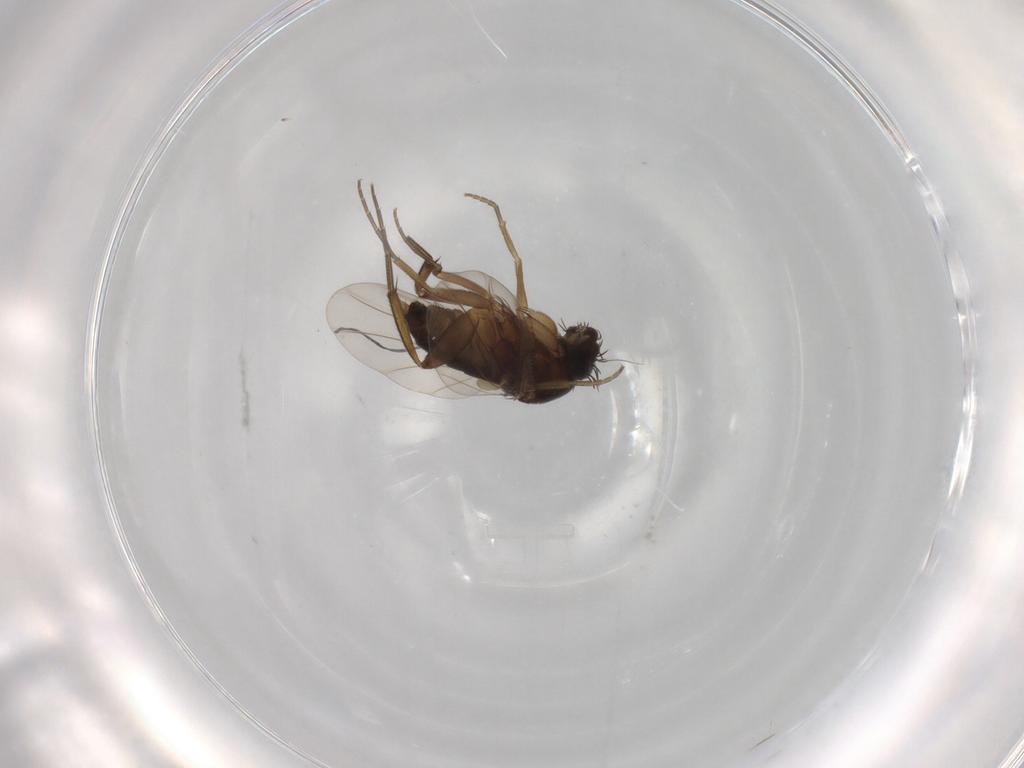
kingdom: Animalia
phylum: Arthropoda
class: Insecta
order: Diptera
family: Phoridae
